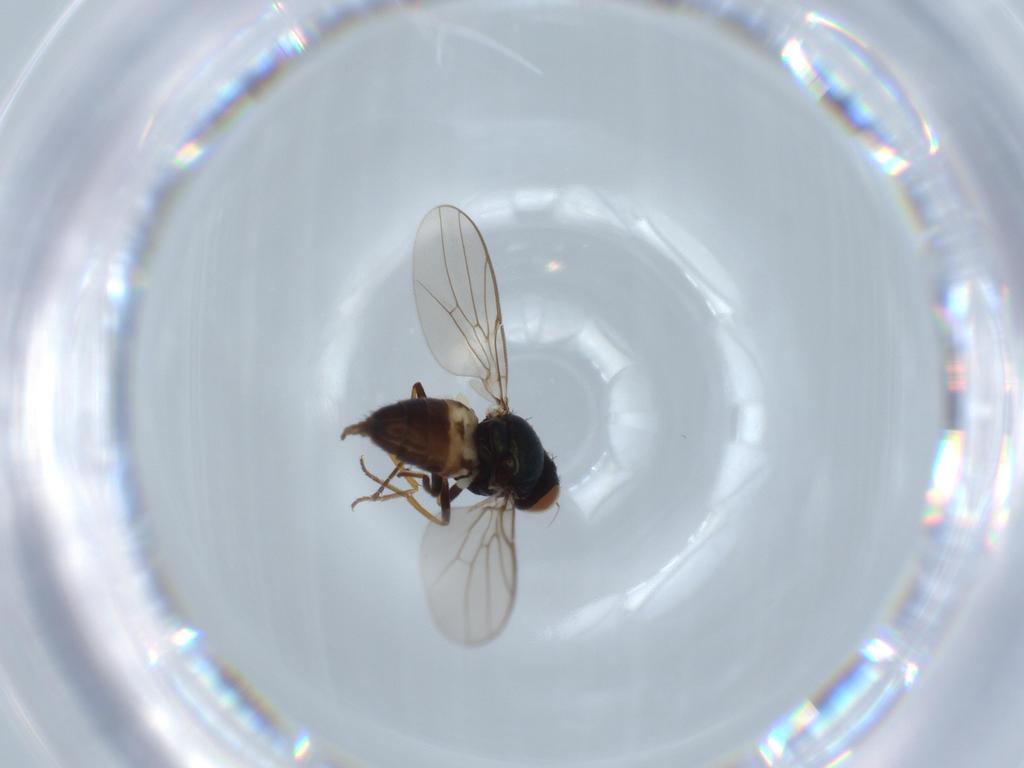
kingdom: Animalia
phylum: Arthropoda
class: Insecta
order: Diptera
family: Chloropidae
